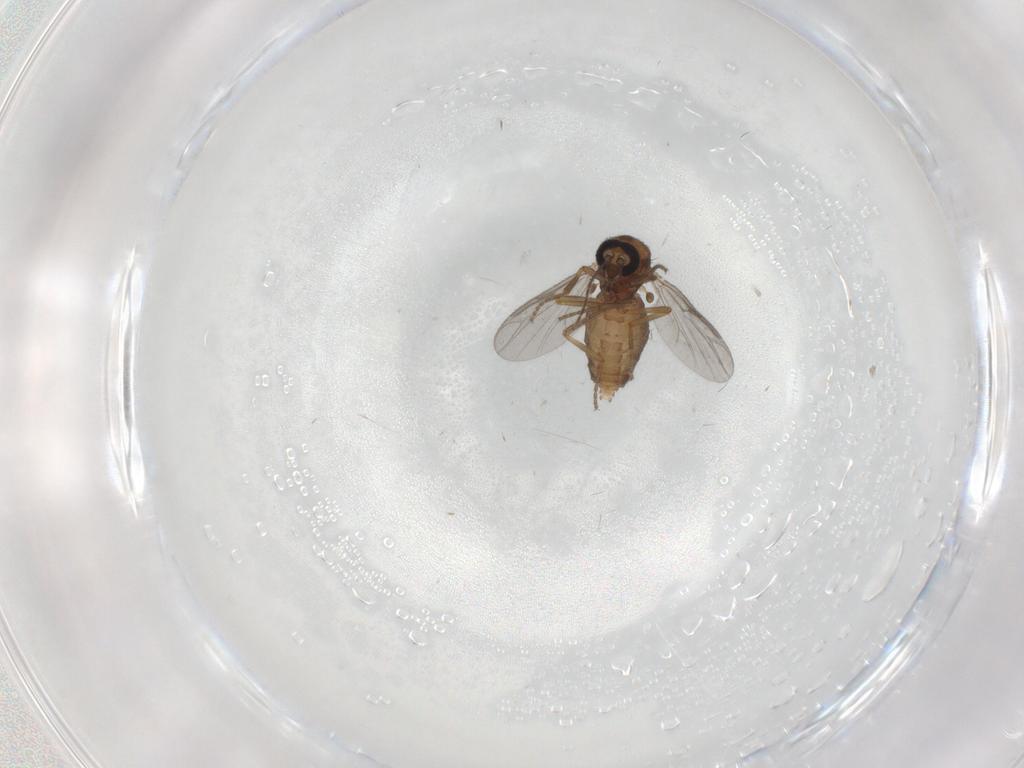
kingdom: Animalia
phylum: Arthropoda
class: Insecta
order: Diptera
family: Ceratopogonidae
